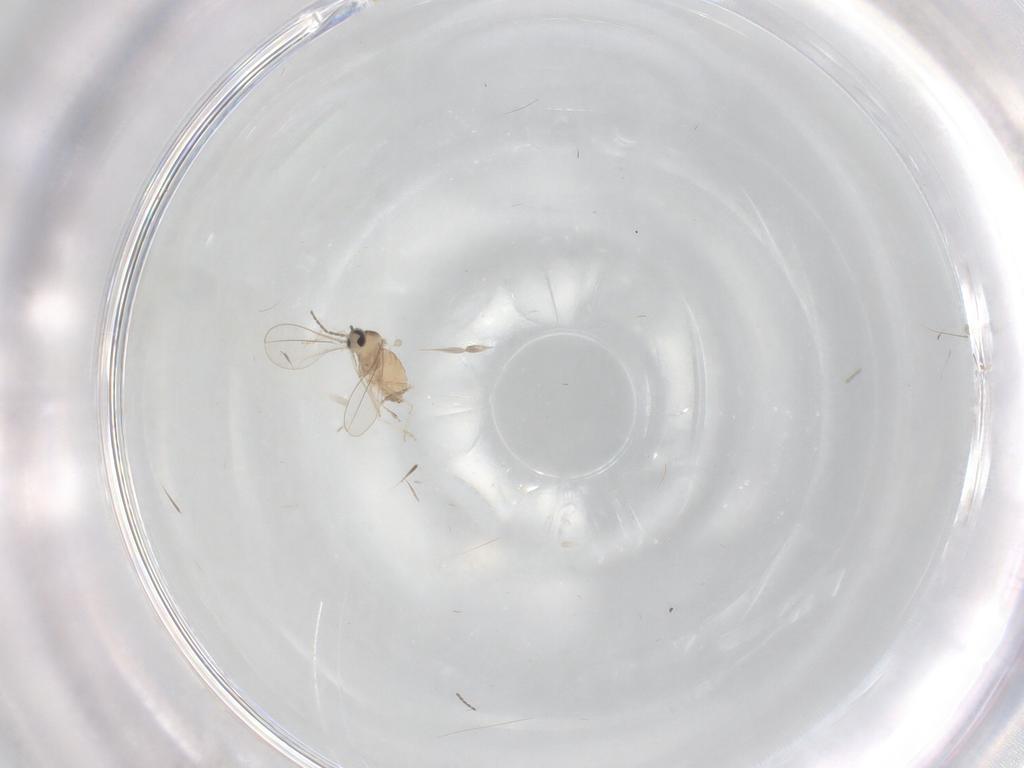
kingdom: Animalia
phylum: Arthropoda
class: Insecta
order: Diptera
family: Cecidomyiidae
